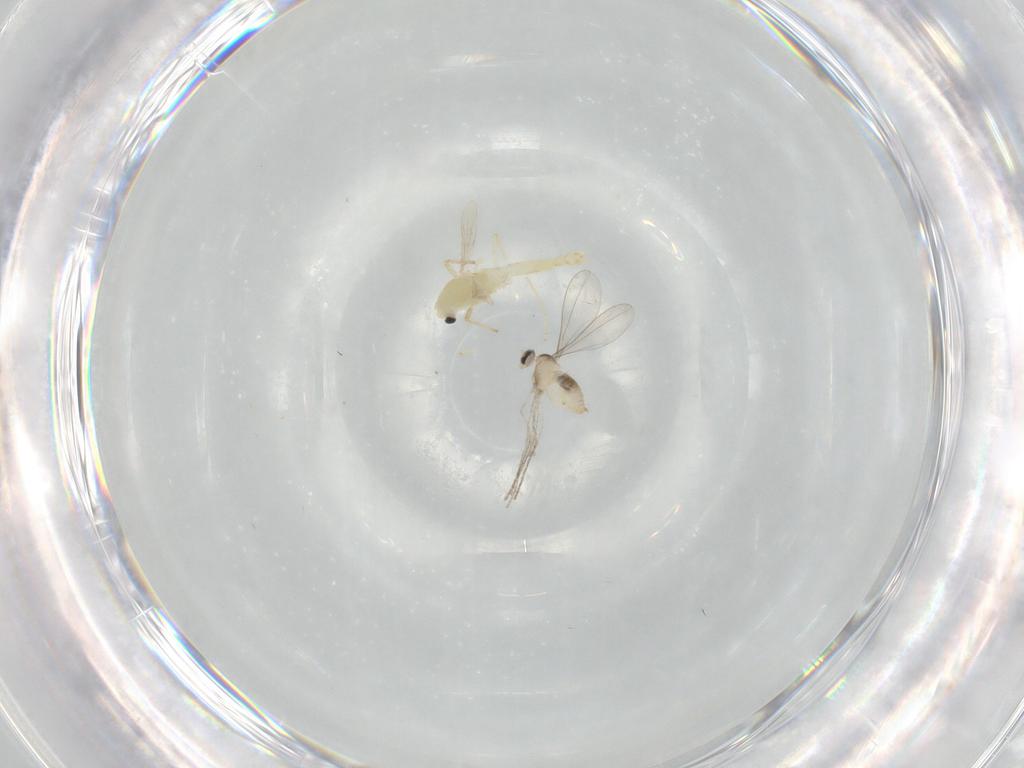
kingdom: Animalia
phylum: Arthropoda
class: Insecta
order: Diptera
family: Chironomidae
